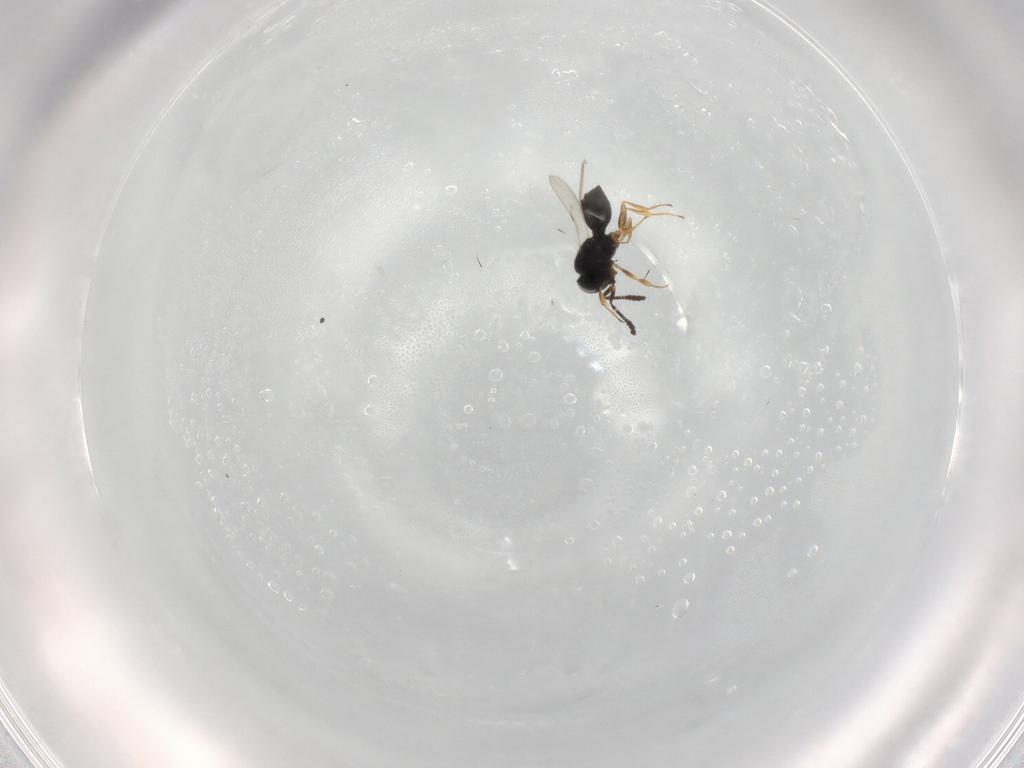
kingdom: Animalia
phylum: Arthropoda
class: Insecta
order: Hymenoptera
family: Scelionidae
